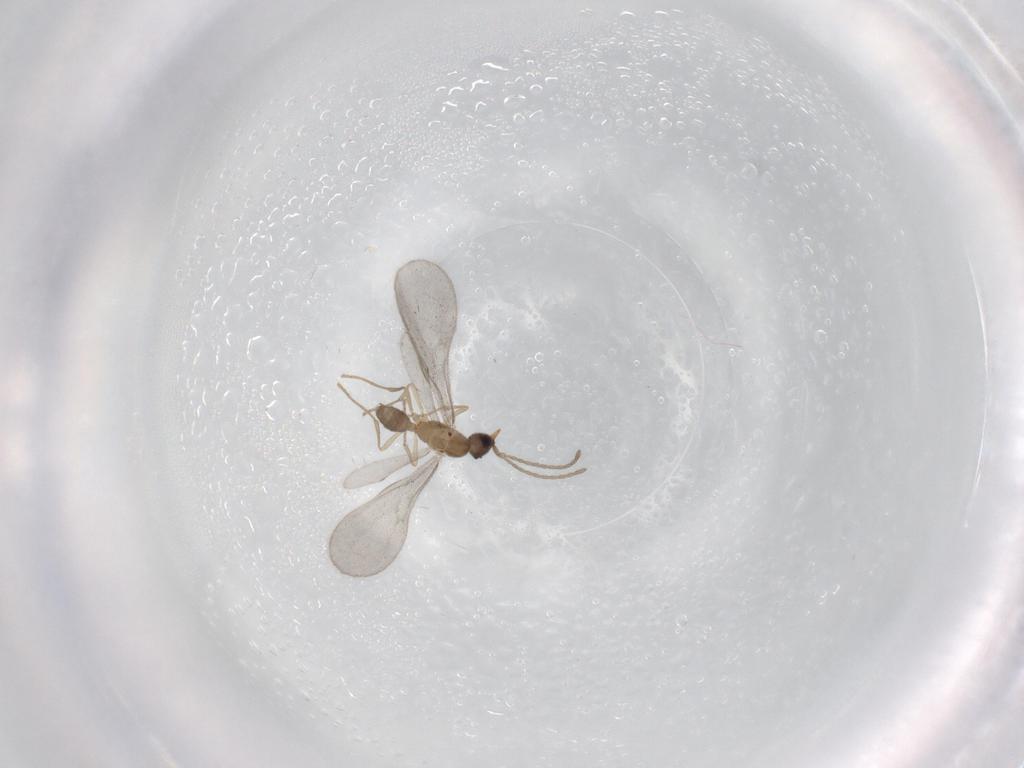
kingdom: Animalia
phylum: Arthropoda
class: Insecta
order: Hymenoptera
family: Formicidae
